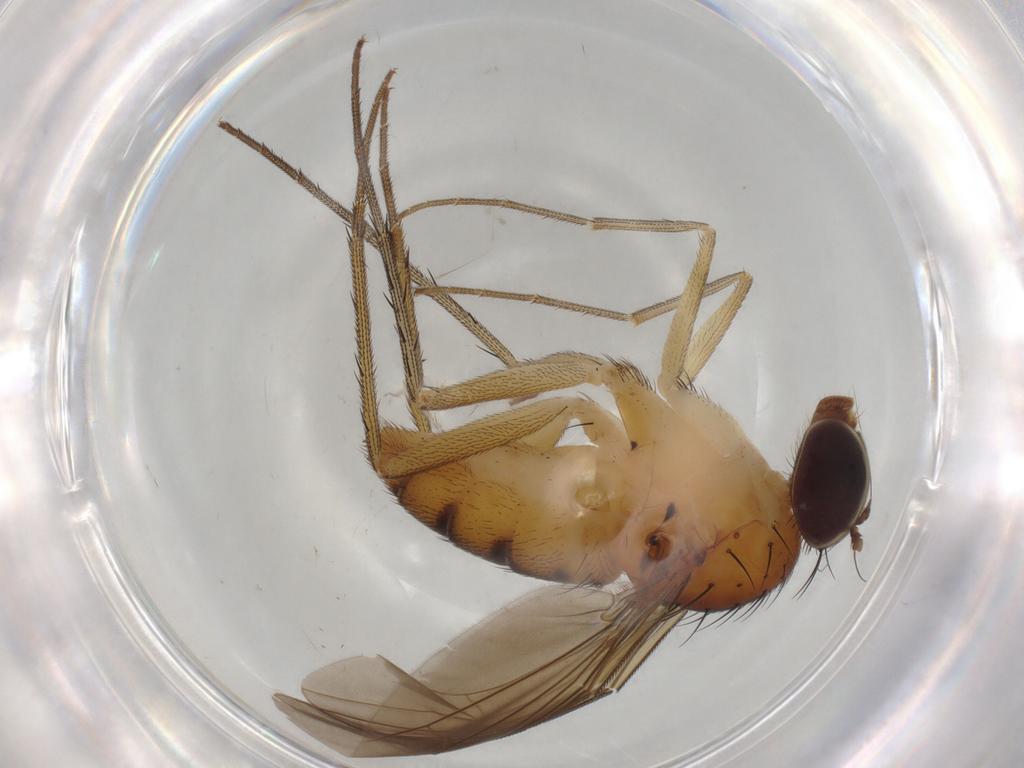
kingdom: Animalia
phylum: Arthropoda
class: Insecta
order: Diptera
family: Dolichopodidae
